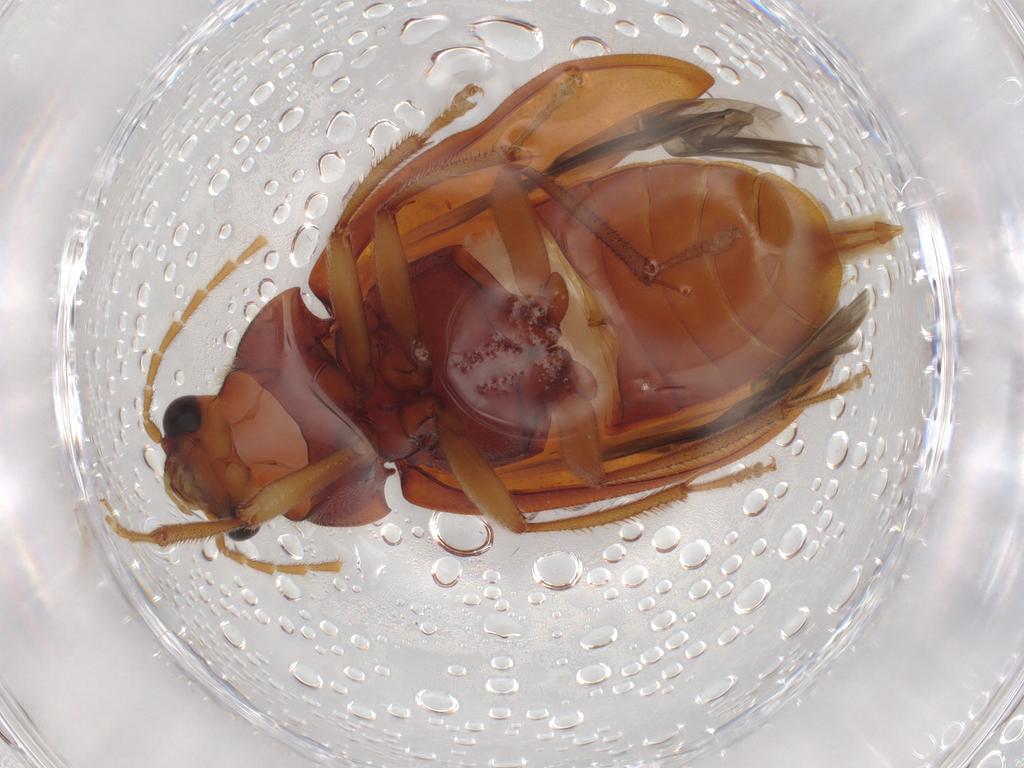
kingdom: Animalia
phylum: Arthropoda
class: Insecta
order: Coleoptera
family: Ptilodactylidae
